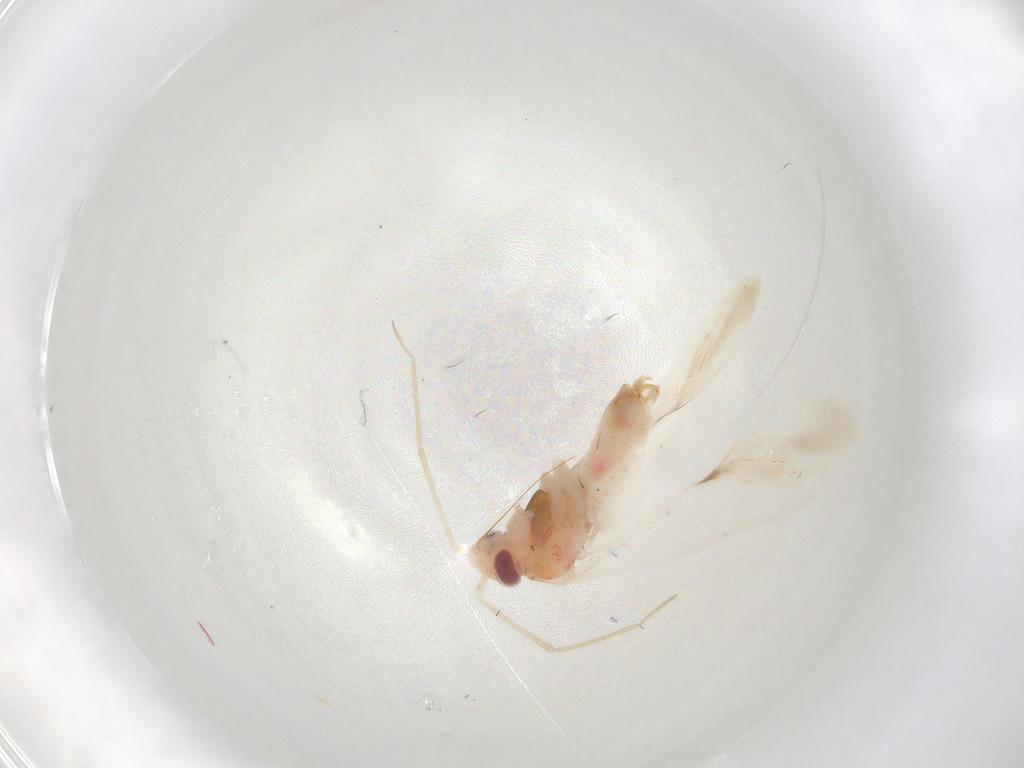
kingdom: Animalia
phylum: Arthropoda
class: Insecta
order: Hemiptera
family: Miridae
